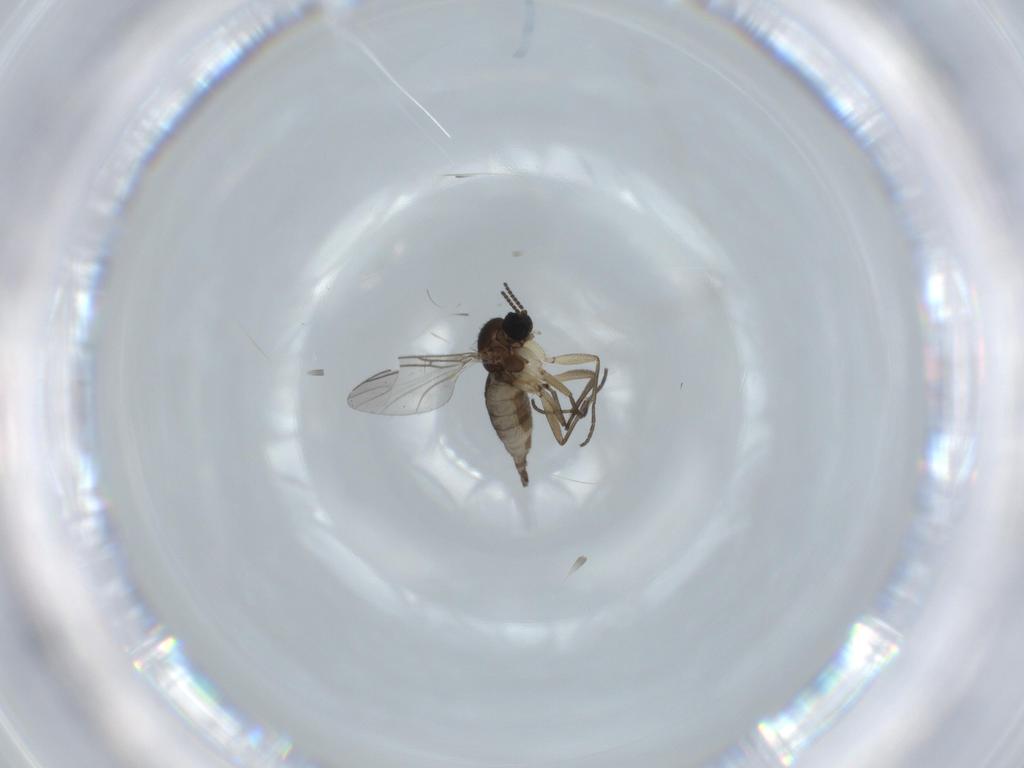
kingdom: Animalia
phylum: Arthropoda
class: Insecta
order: Diptera
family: Sciaridae
